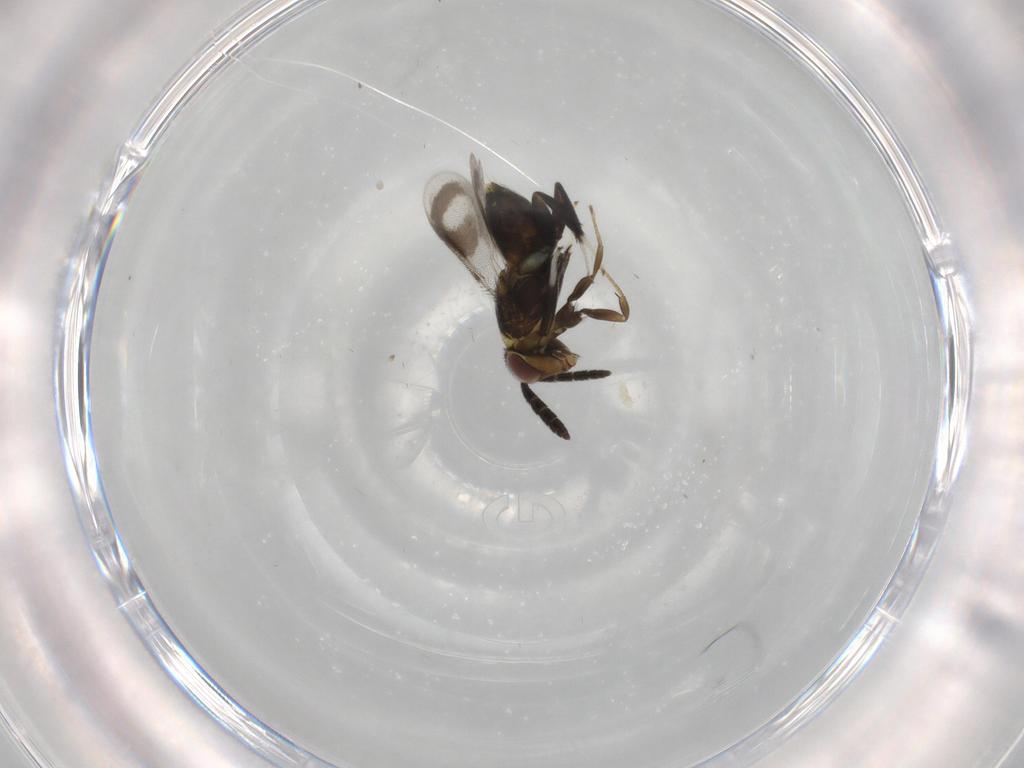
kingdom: Animalia
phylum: Arthropoda
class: Insecta
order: Hymenoptera
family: Aphelinidae
